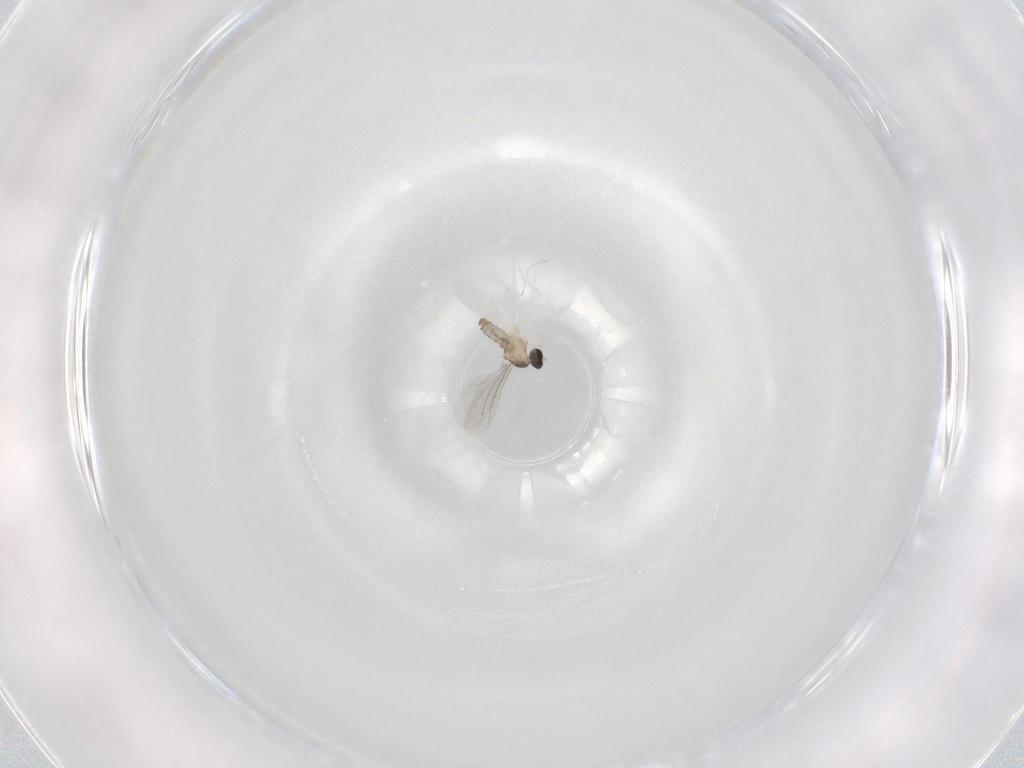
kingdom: Animalia
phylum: Arthropoda
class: Insecta
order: Diptera
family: Cecidomyiidae
